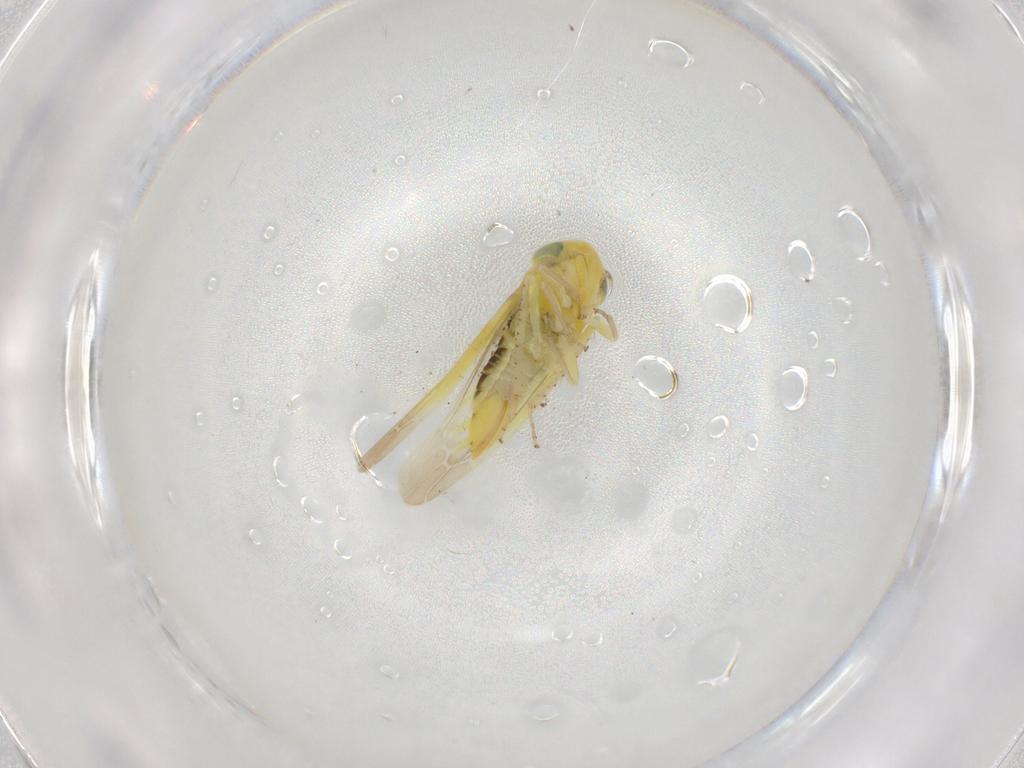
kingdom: Animalia
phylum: Arthropoda
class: Insecta
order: Hemiptera
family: Cicadellidae
